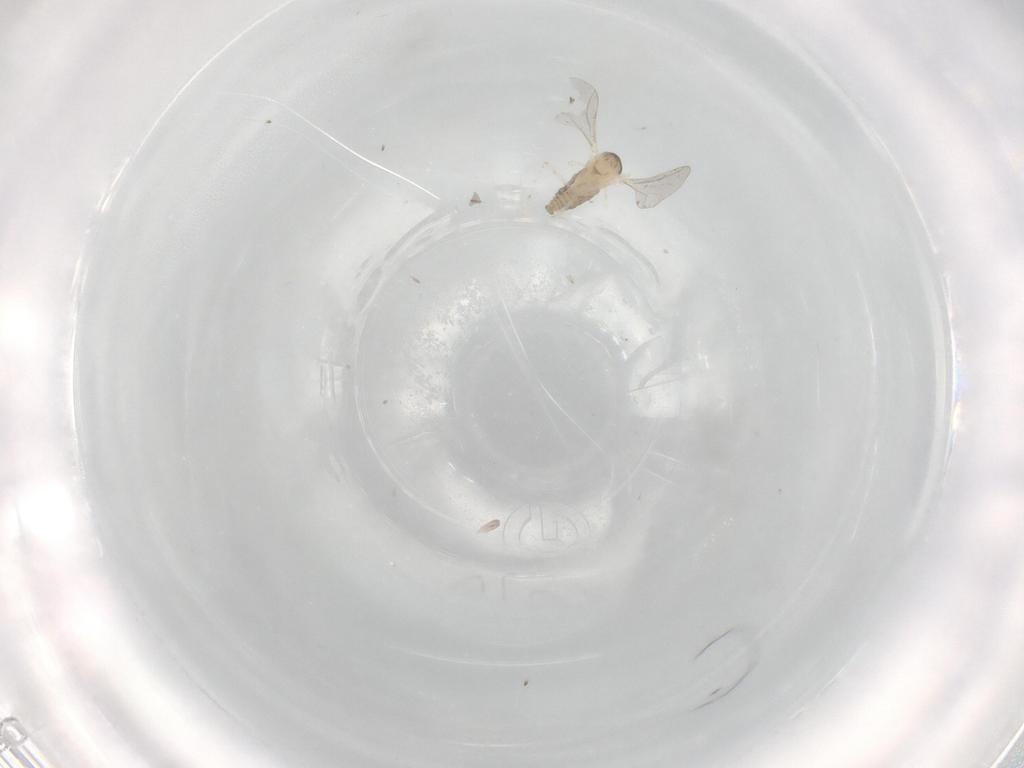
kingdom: Animalia
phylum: Arthropoda
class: Insecta
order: Diptera
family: Cecidomyiidae
